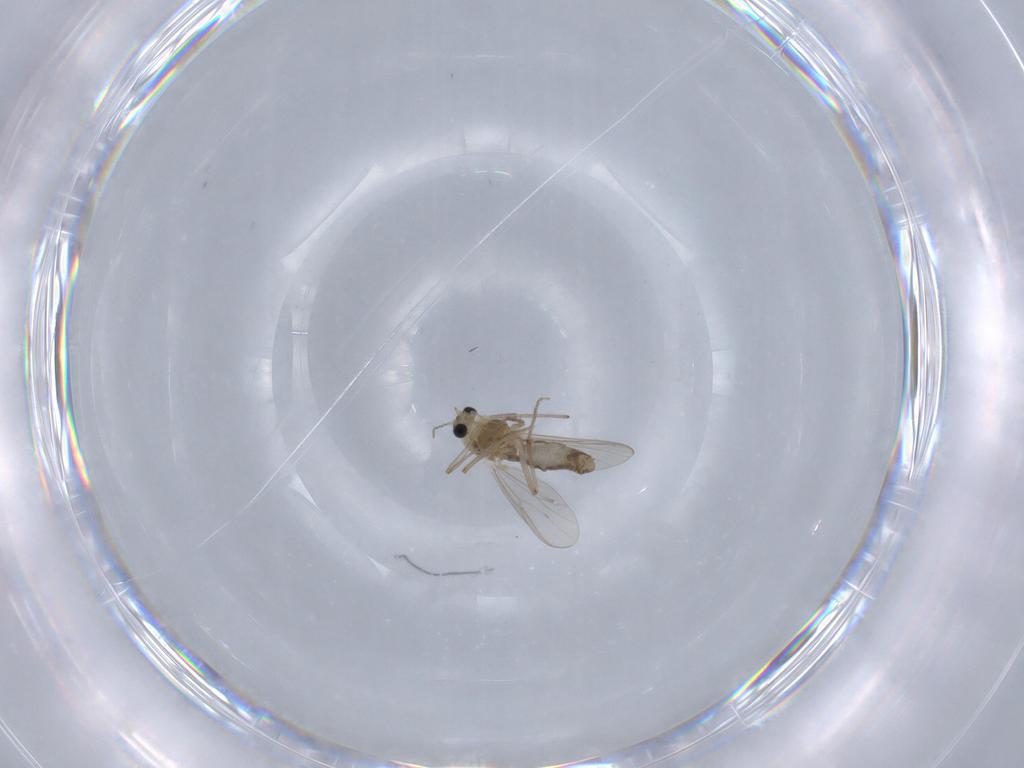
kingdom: Animalia
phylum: Arthropoda
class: Insecta
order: Diptera
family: Chironomidae
